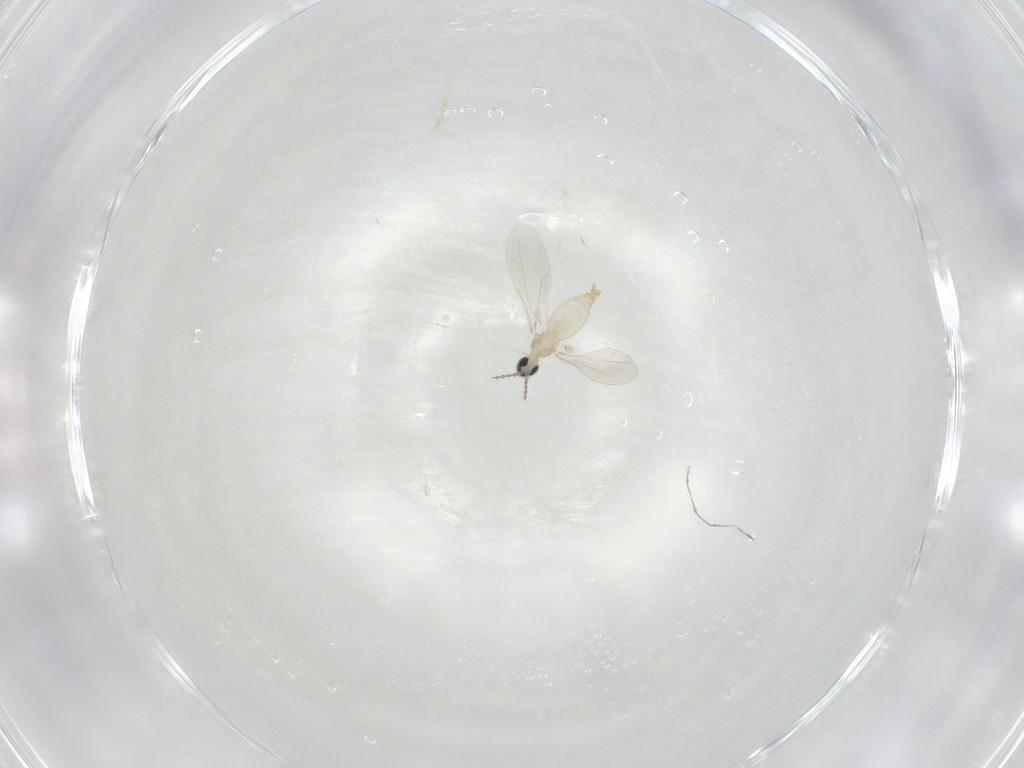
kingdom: Animalia
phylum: Arthropoda
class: Insecta
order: Diptera
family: Cecidomyiidae
